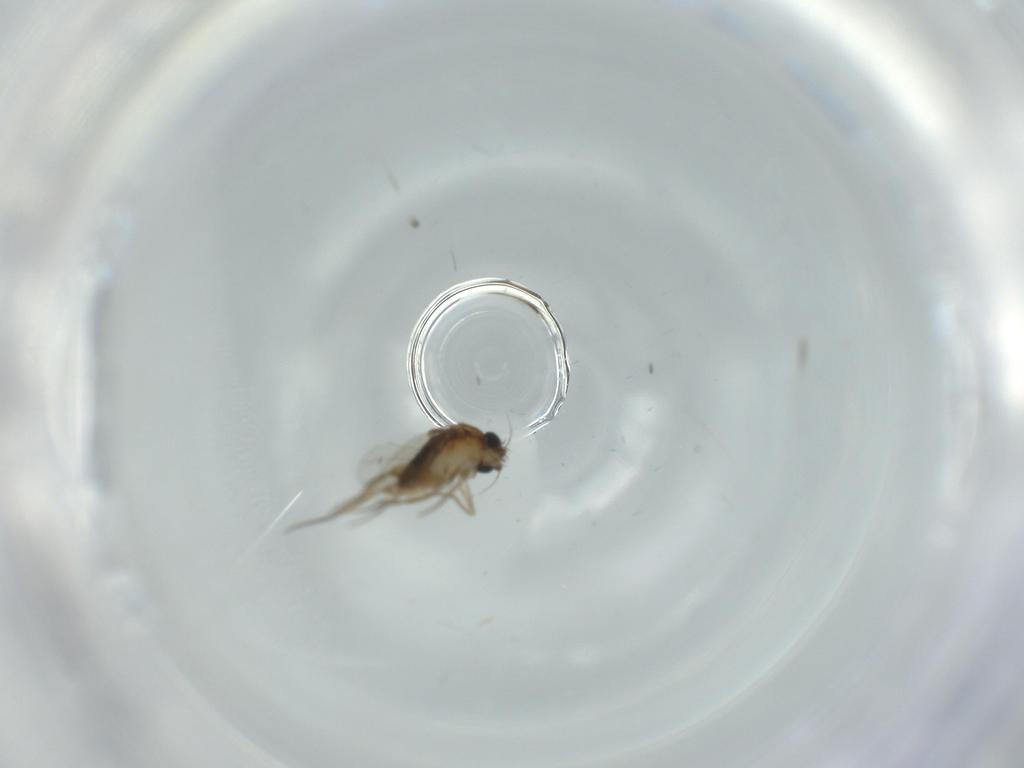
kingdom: Animalia
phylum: Arthropoda
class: Insecta
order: Diptera
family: Phoridae
